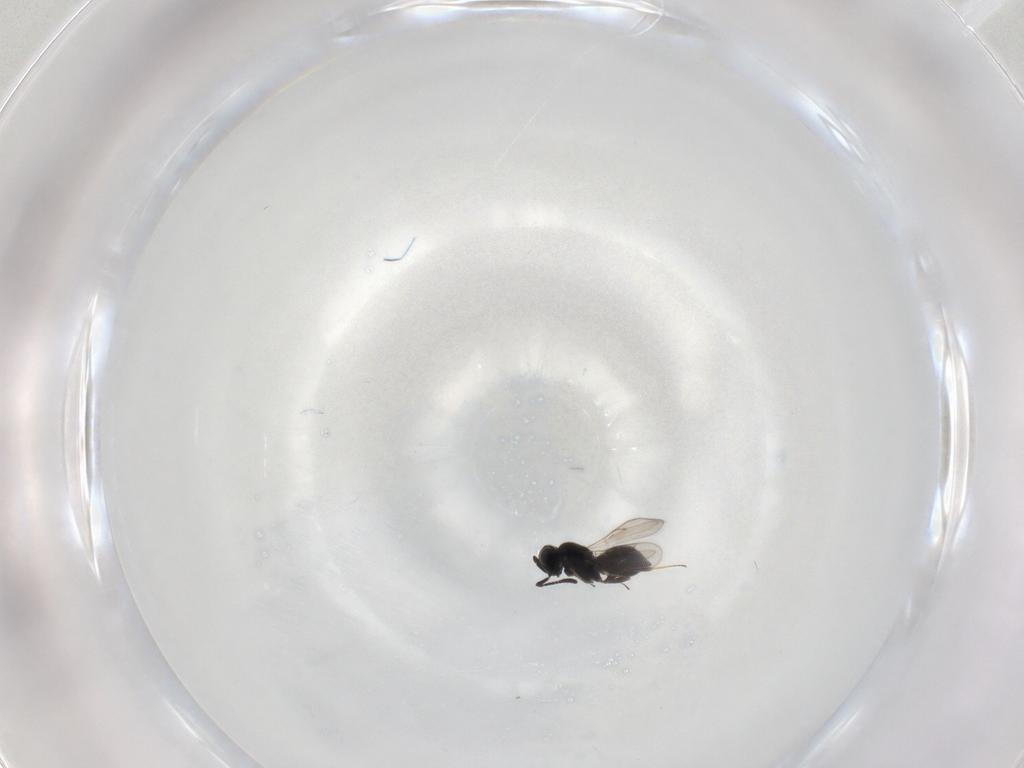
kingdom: Animalia
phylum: Arthropoda
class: Insecta
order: Hymenoptera
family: Scelionidae
